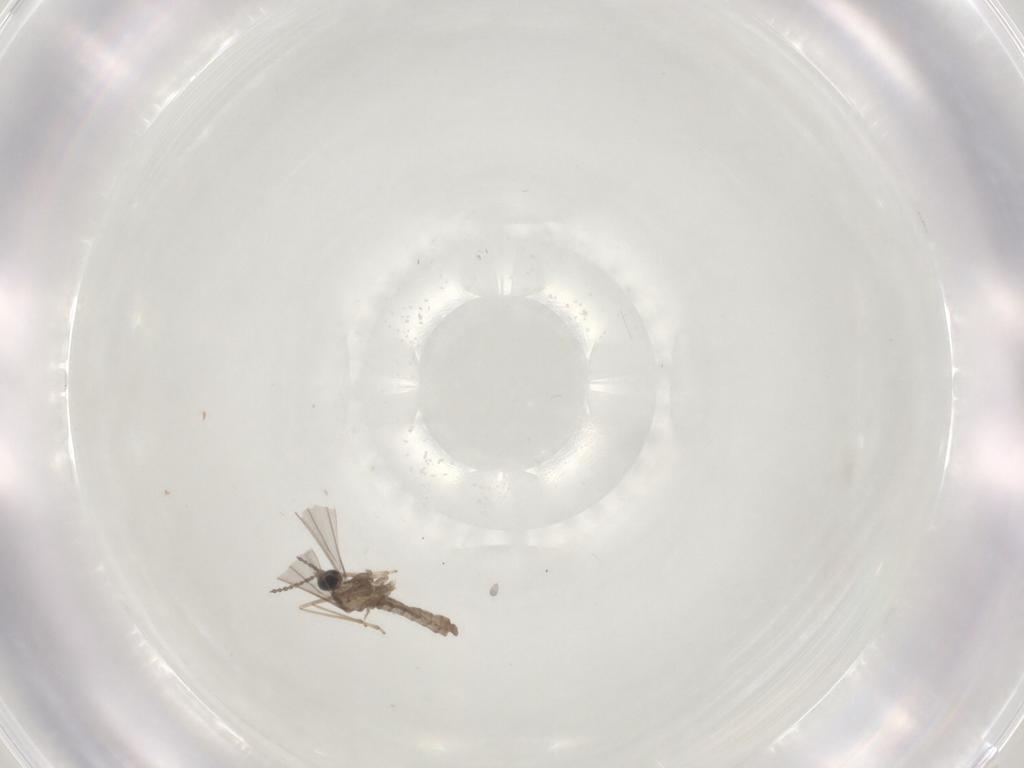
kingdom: Animalia
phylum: Arthropoda
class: Insecta
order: Diptera
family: Cecidomyiidae
